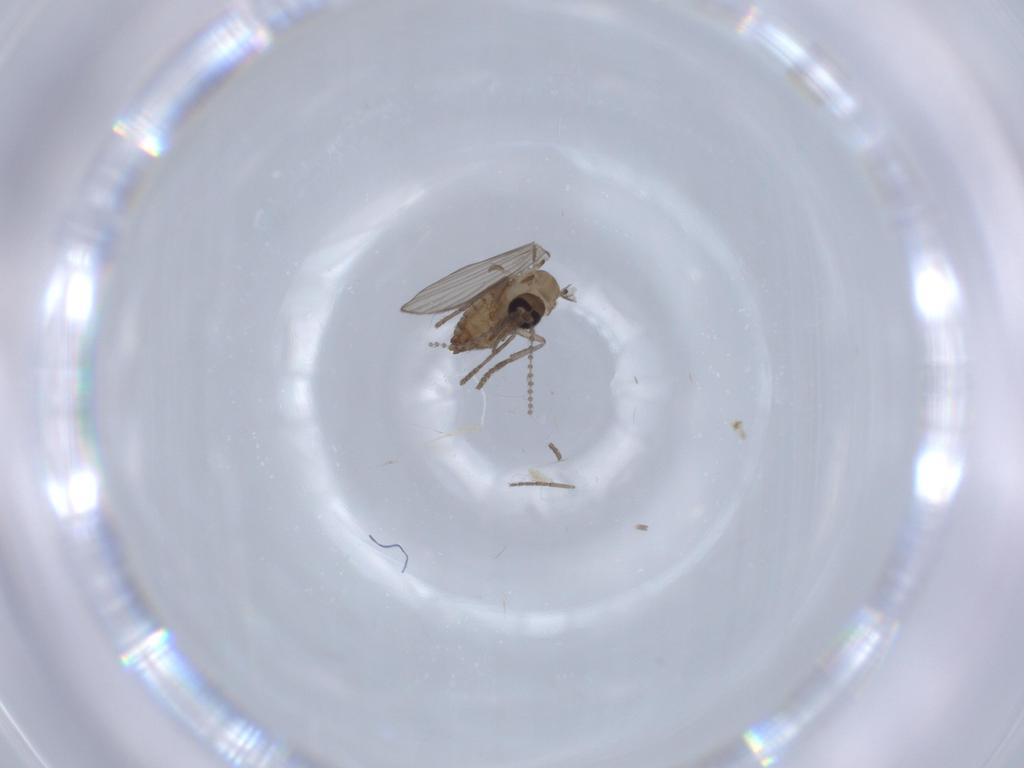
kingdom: Animalia
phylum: Arthropoda
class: Insecta
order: Diptera
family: Psychodidae
